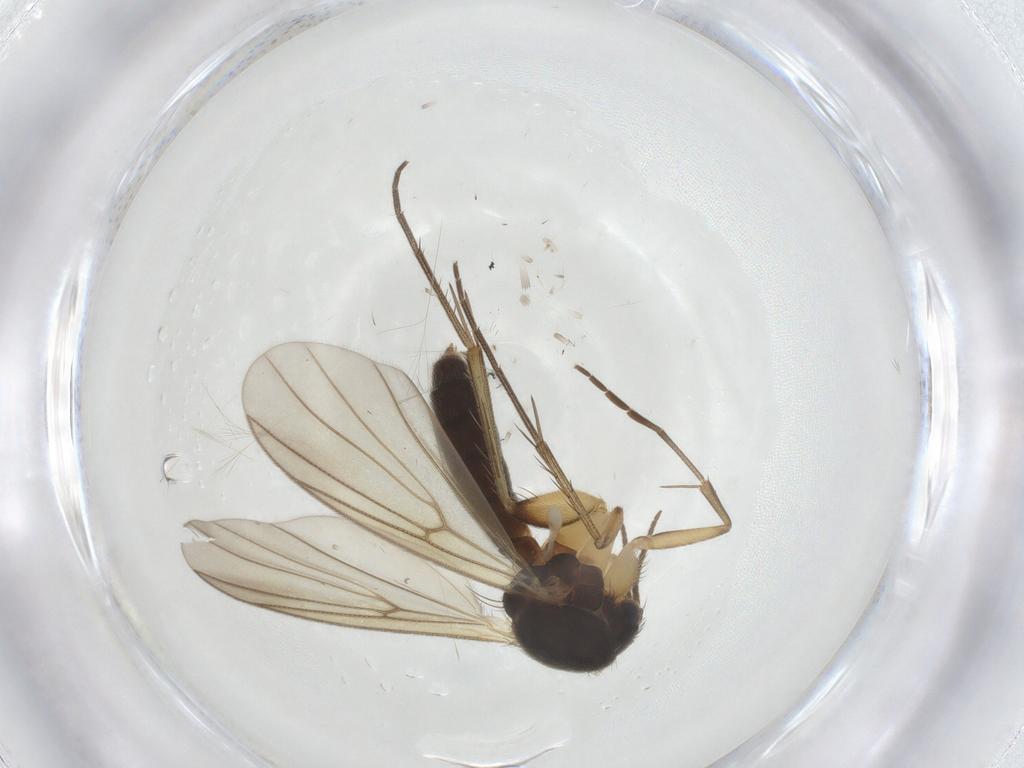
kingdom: Animalia
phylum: Arthropoda
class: Insecta
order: Diptera
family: Mycetophilidae
